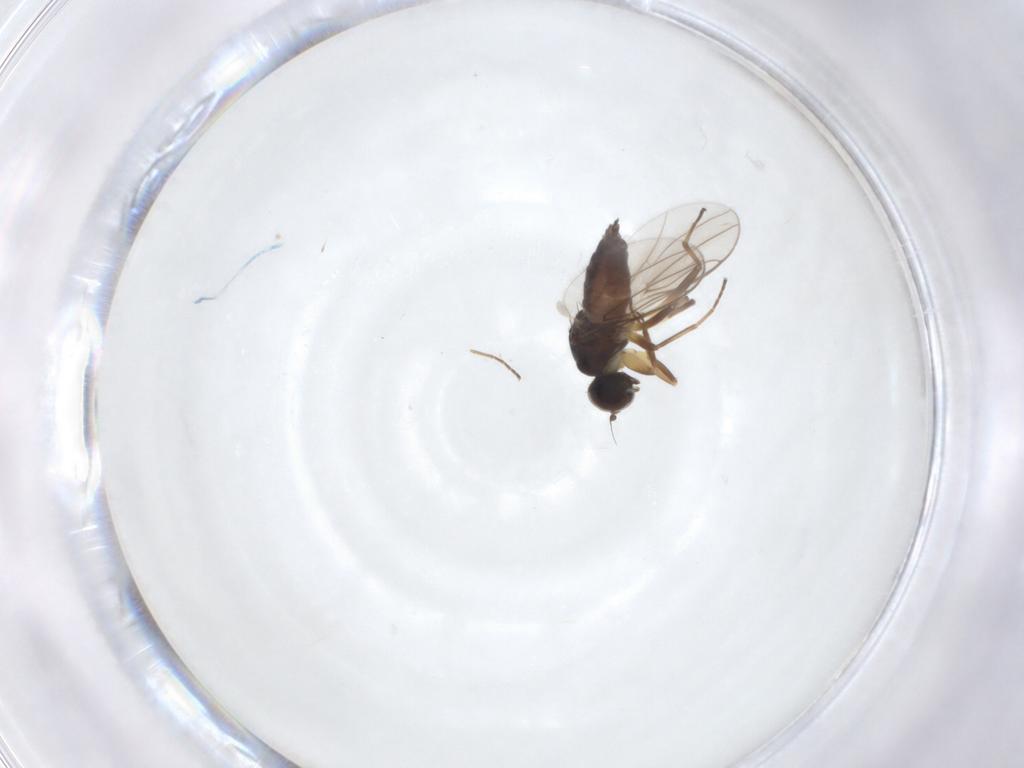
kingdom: Animalia
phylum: Arthropoda
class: Insecta
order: Diptera
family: Hybotidae
